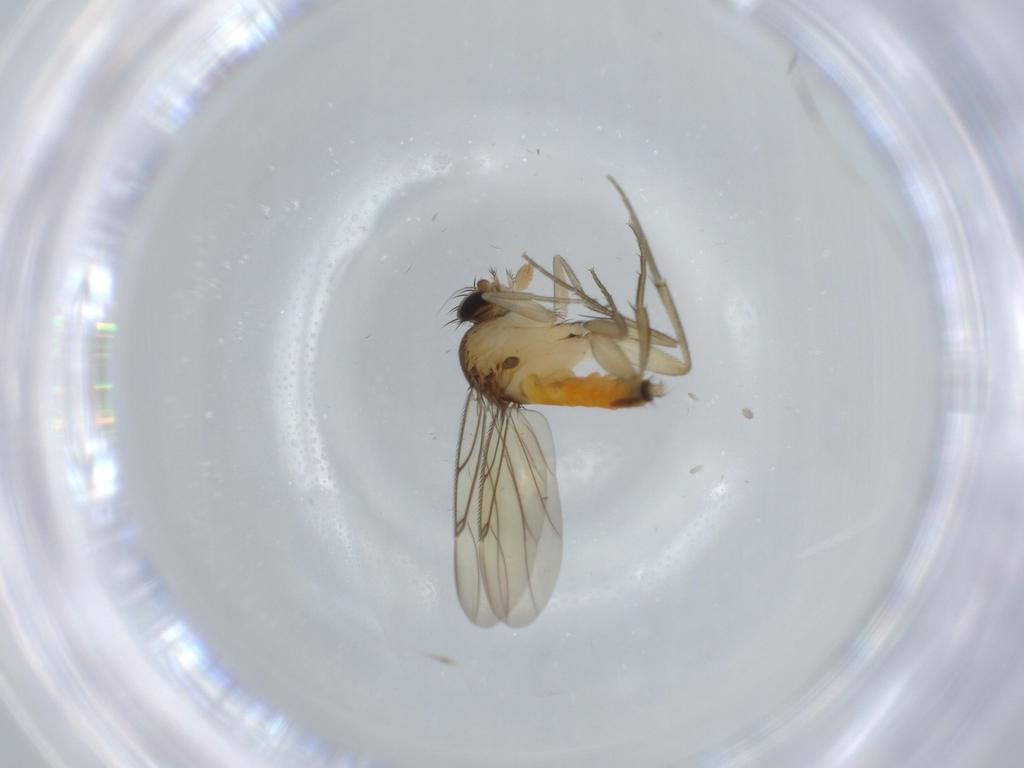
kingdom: Animalia
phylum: Arthropoda
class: Insecta
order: Diptera
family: Phoridae
